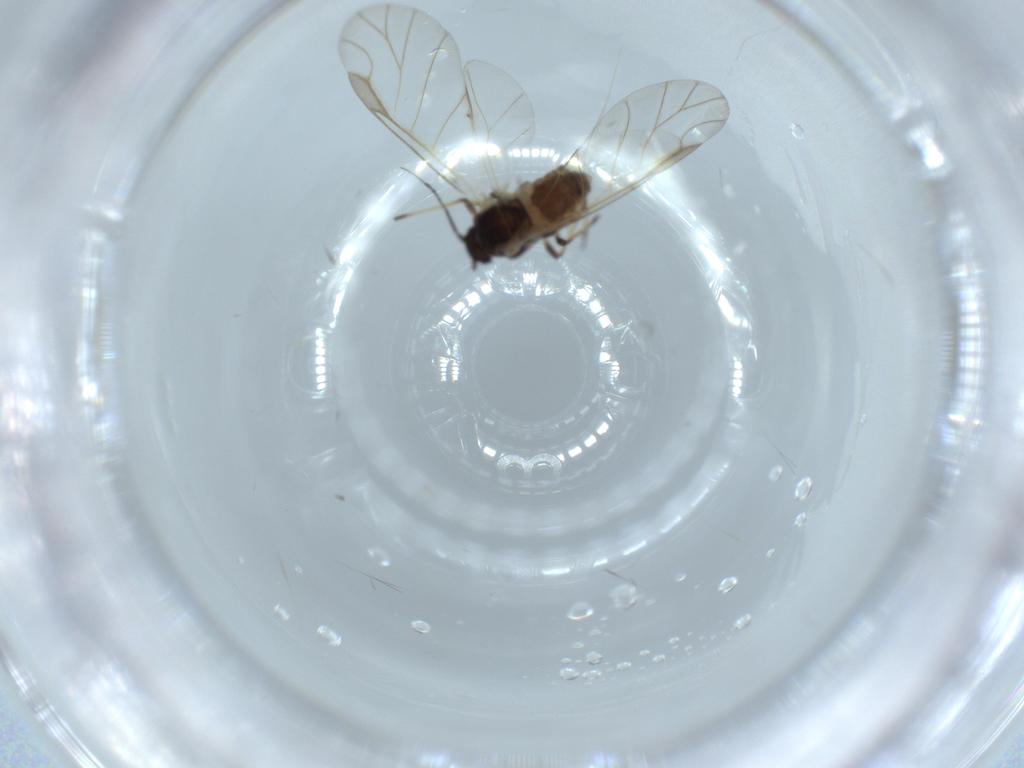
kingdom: Animalia
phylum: Arthropoda
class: Insecta
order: Hemiptera
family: Aphididae
